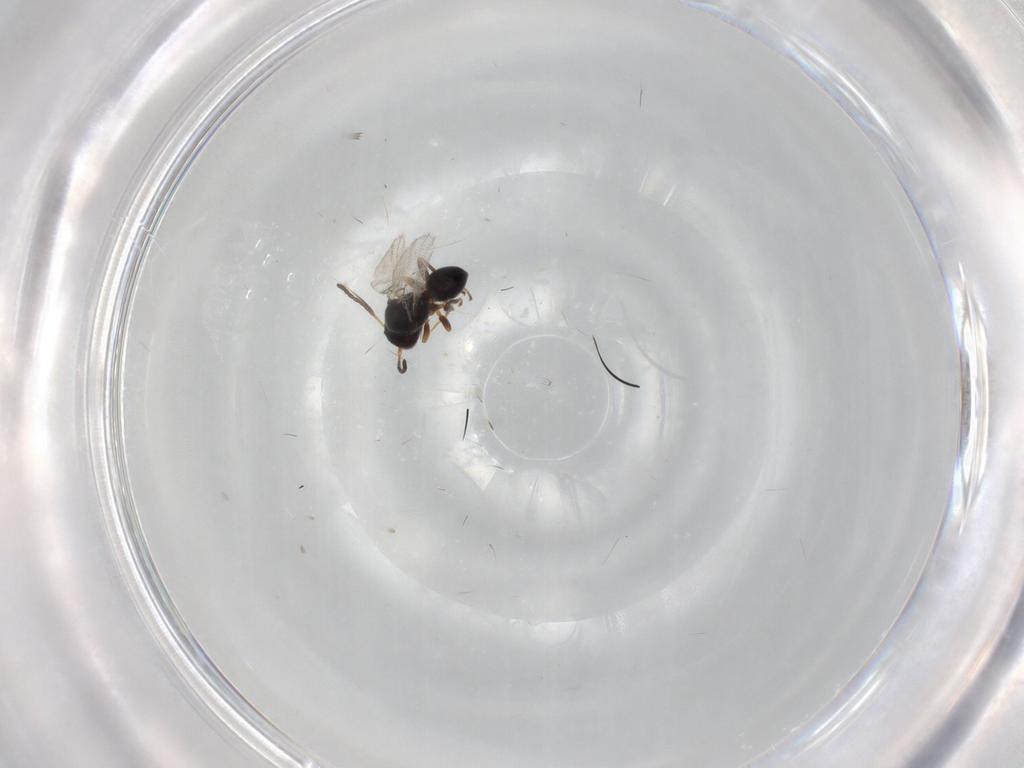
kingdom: Animalia
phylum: Arthropoda
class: Insecta
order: Hymenoptera
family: Figitidae
